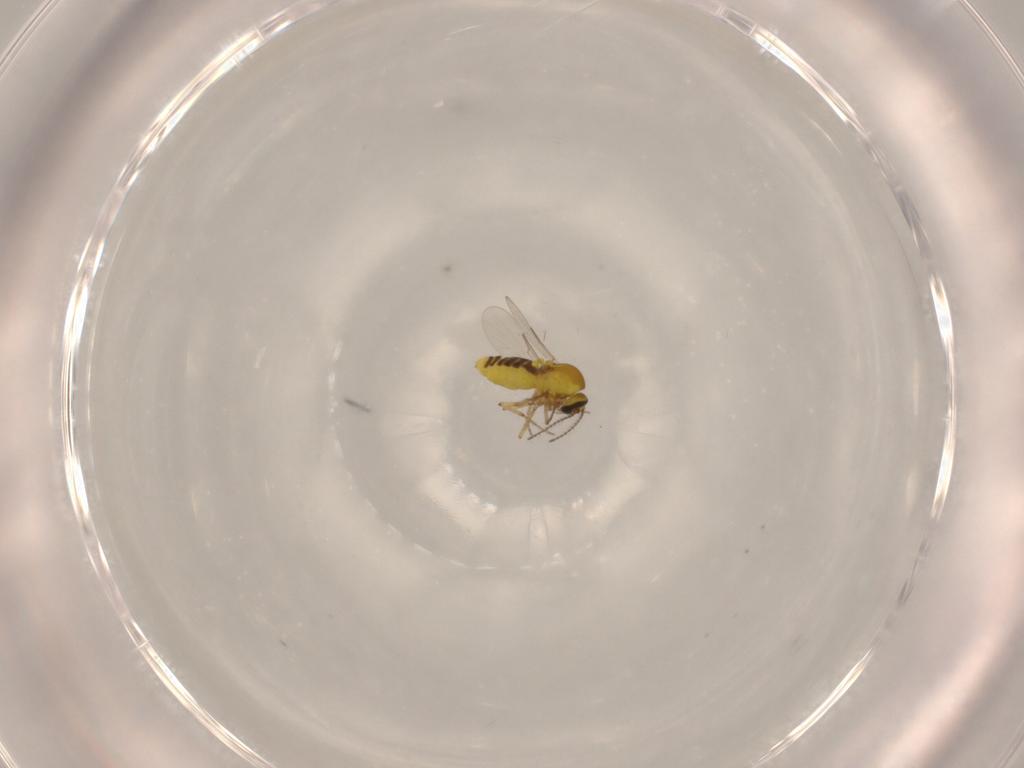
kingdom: Animalia
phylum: Arthropoda
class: Insecta
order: Diptera
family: Ceratopogonidae
